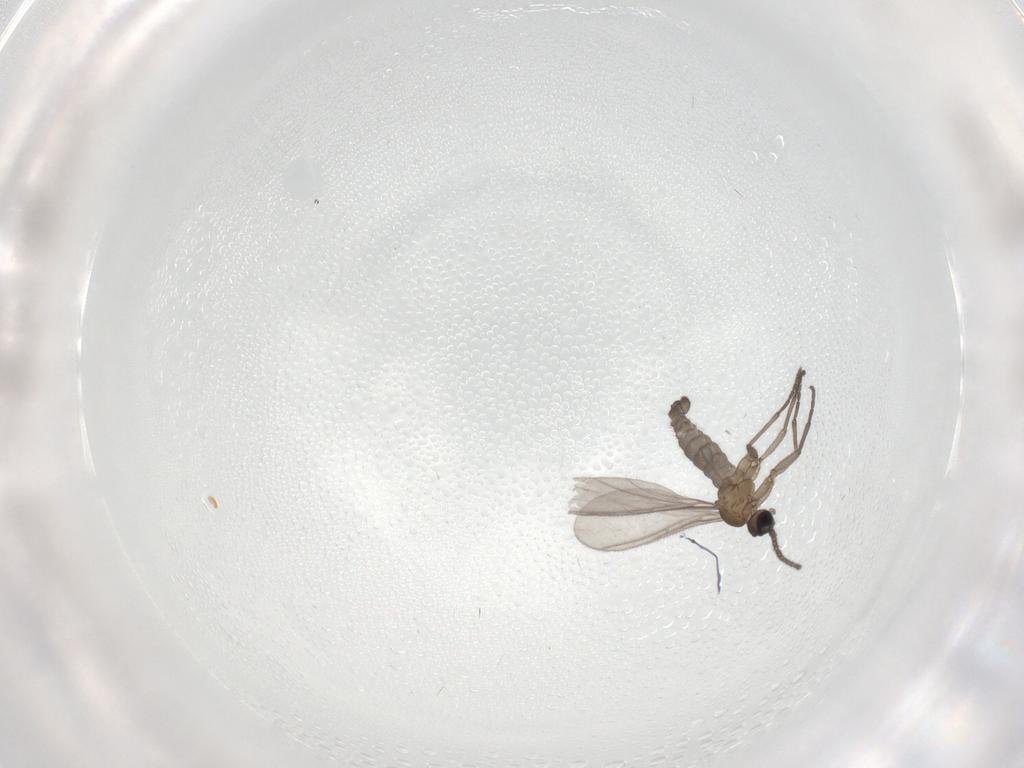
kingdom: Animalia
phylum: Arthropoda
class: Insecta
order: Diptera
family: Sciaridae
